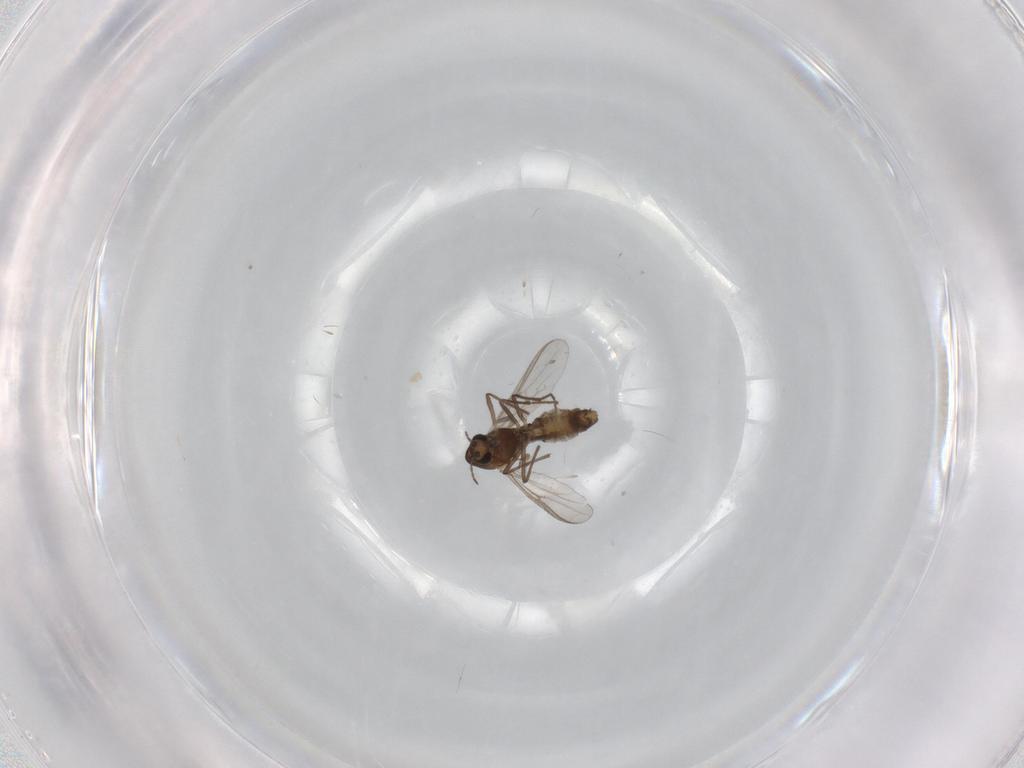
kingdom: Animalia
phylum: Arthropoda
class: Insecta
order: Diptera
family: Chironomidae
